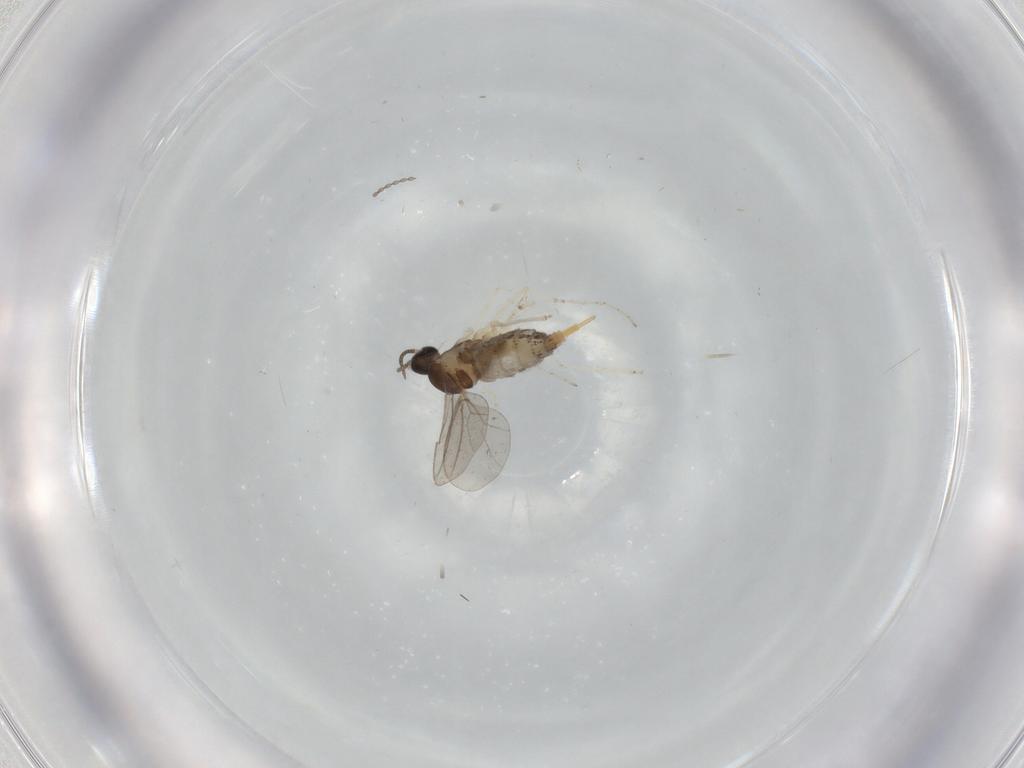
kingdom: Animalia
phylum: Arthropoda
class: Insecta
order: Diptera
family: Cecidomyiidae
